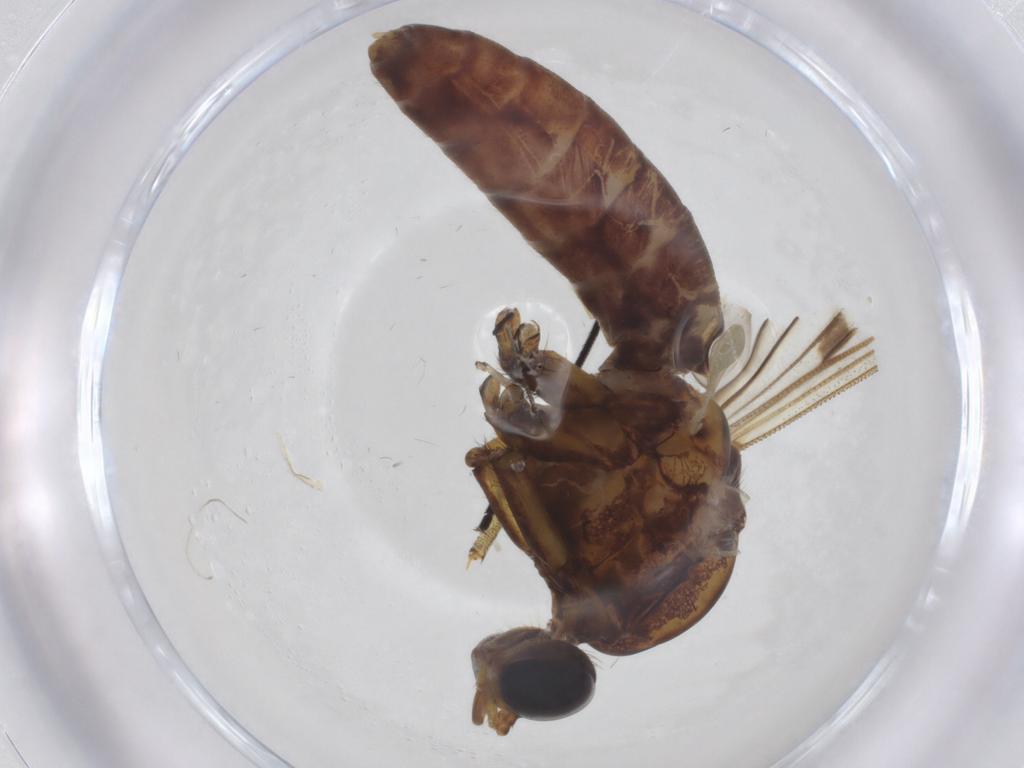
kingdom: Animalia
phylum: Arthropoda
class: Insecta
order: Diptera
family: Anisopodidae
